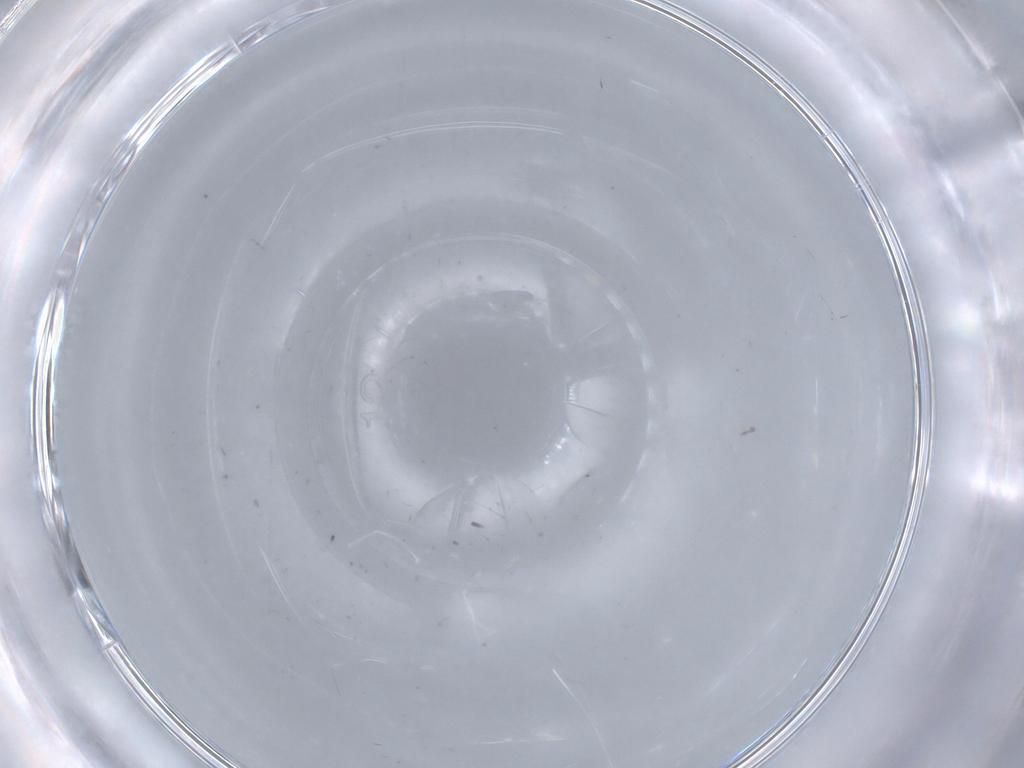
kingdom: Animalia
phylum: Arthropoda
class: Insecta
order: Diptera
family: Chironomidae
